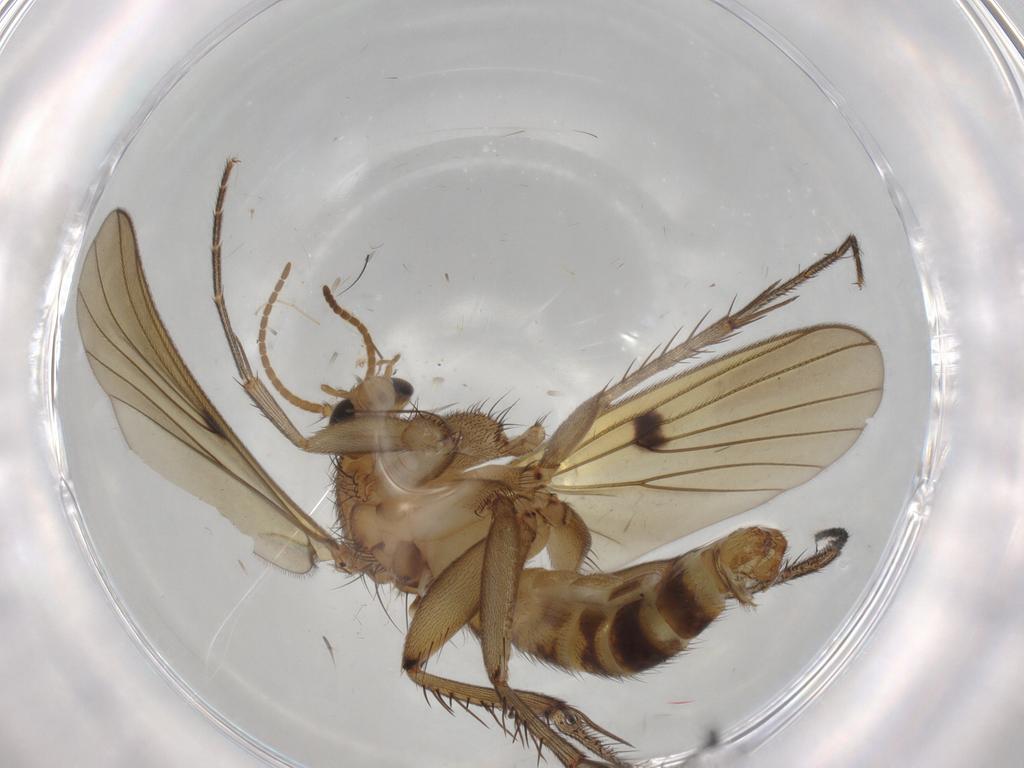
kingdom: Animalia
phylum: Arthropoda
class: Insecta
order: Diptera
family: Mycetophilidae
